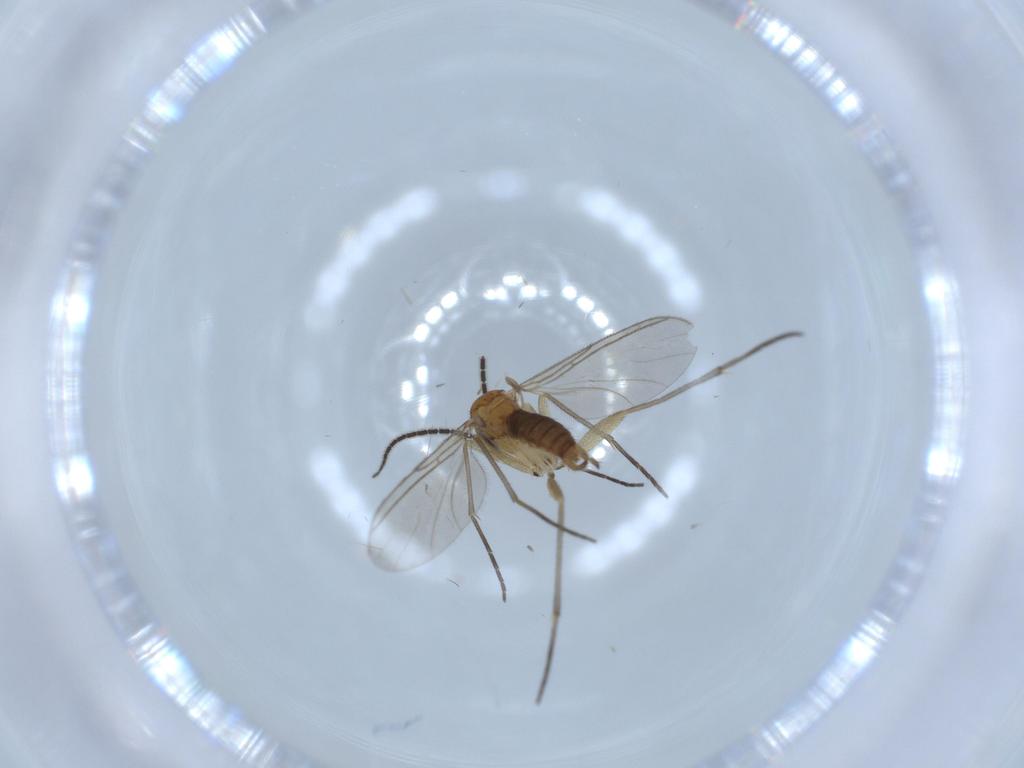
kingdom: Animalia
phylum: Arthropoda
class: Insecta
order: Diptera
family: Sciaridae
